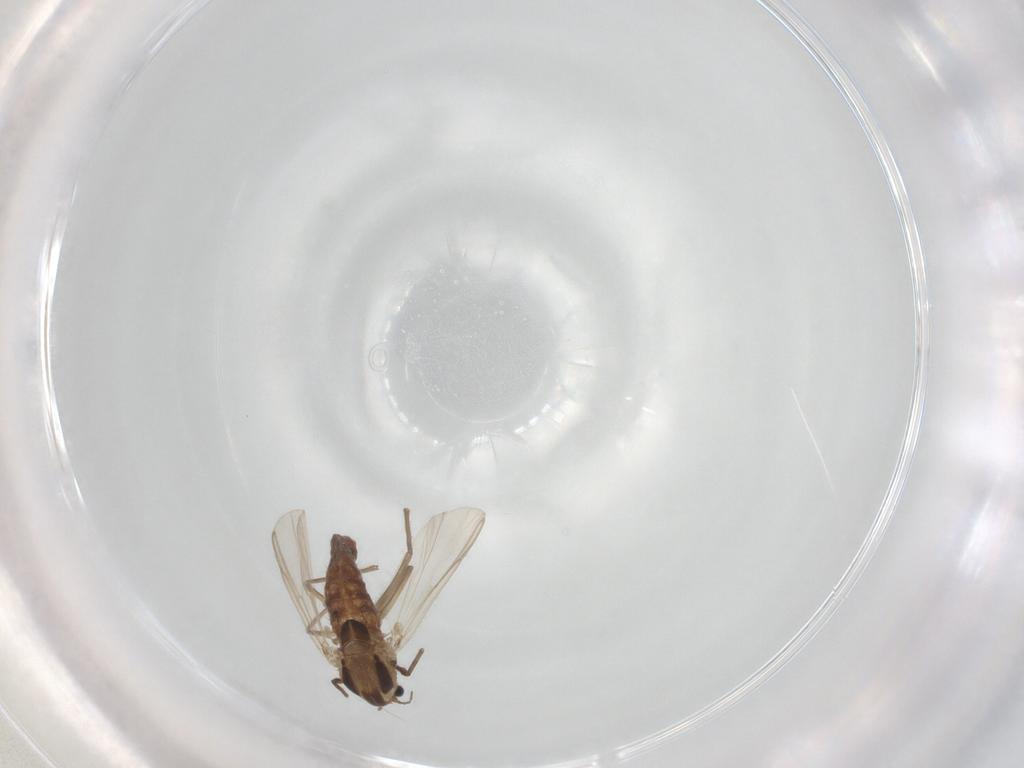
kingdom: Animalia
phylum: Arthropoda
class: Insecta
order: Diptera
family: Chironomidae
